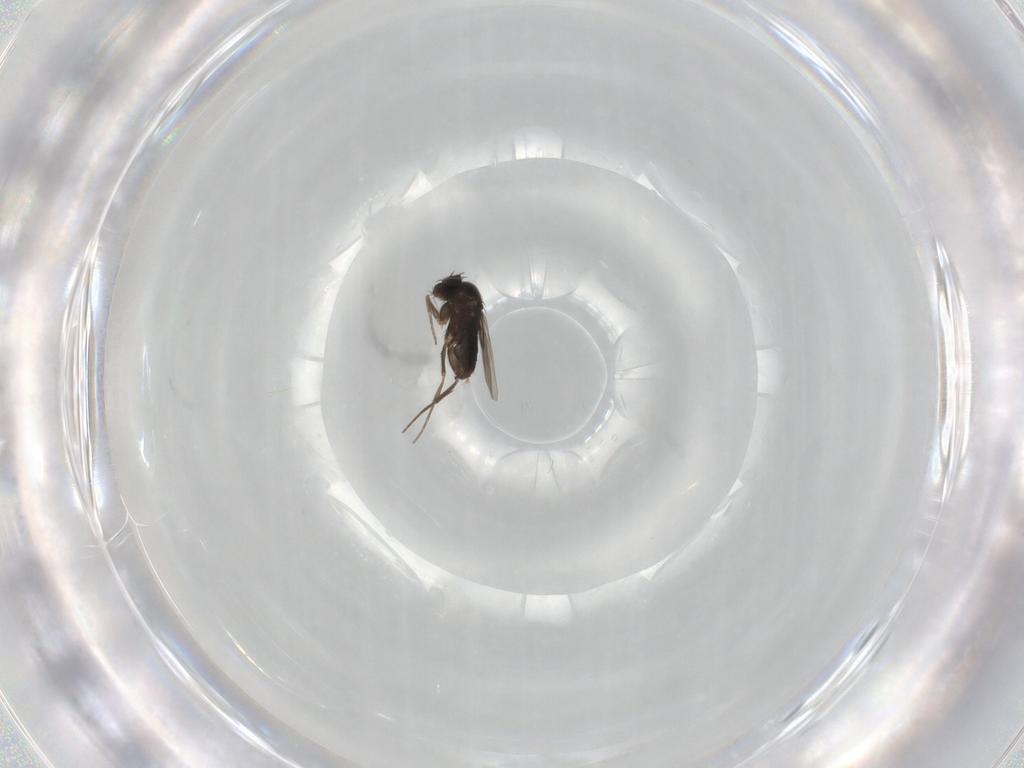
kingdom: Animalia
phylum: Arthropoda
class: Insecta
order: Diptera
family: Phoridae
